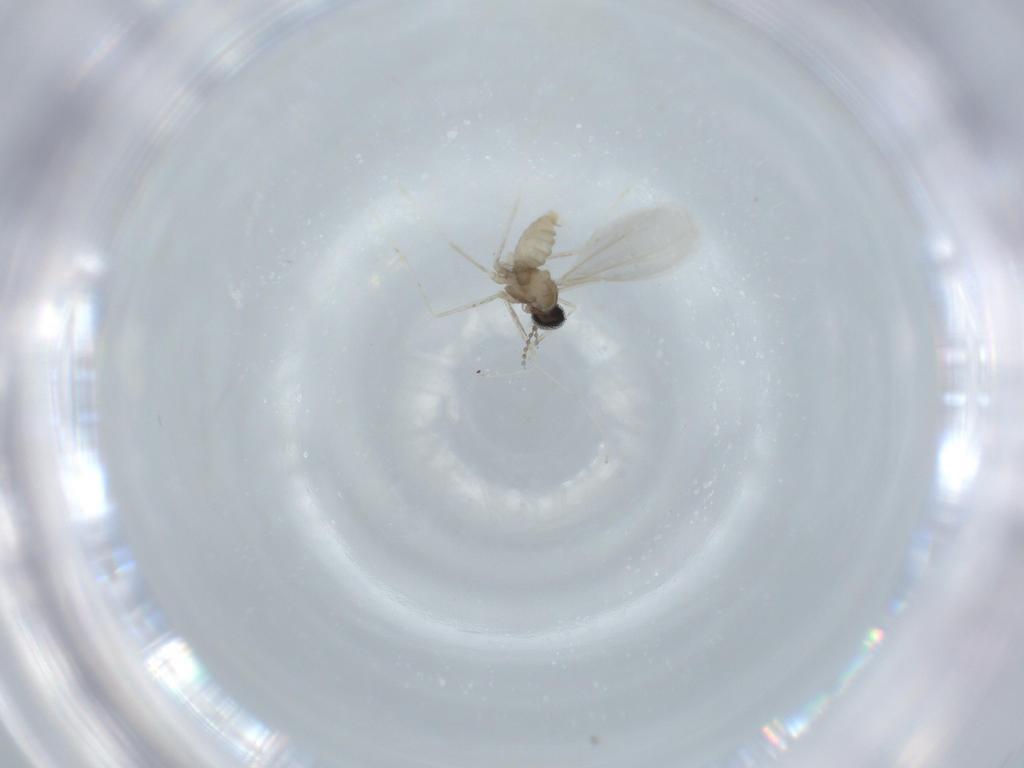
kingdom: Animalia
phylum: Arthropoda
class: Insecta
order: Diptera
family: Cecidomyiidae
